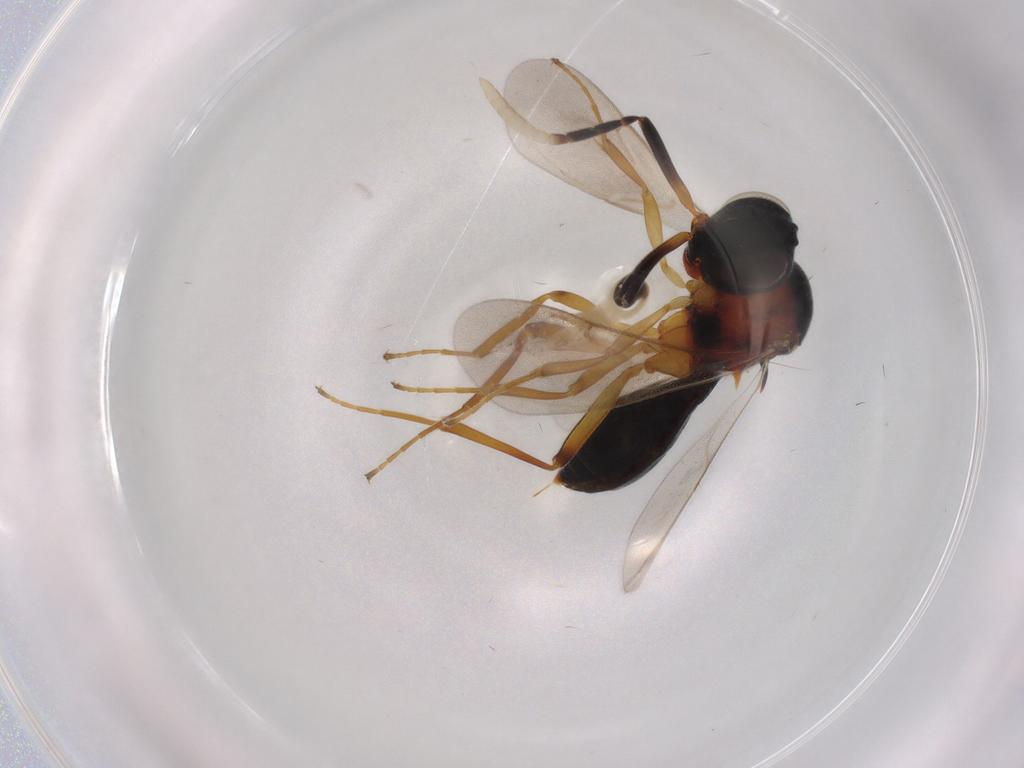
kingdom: Animalia
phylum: Arthropoda
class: Insecta
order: Hymenoptera
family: Scelionidae
